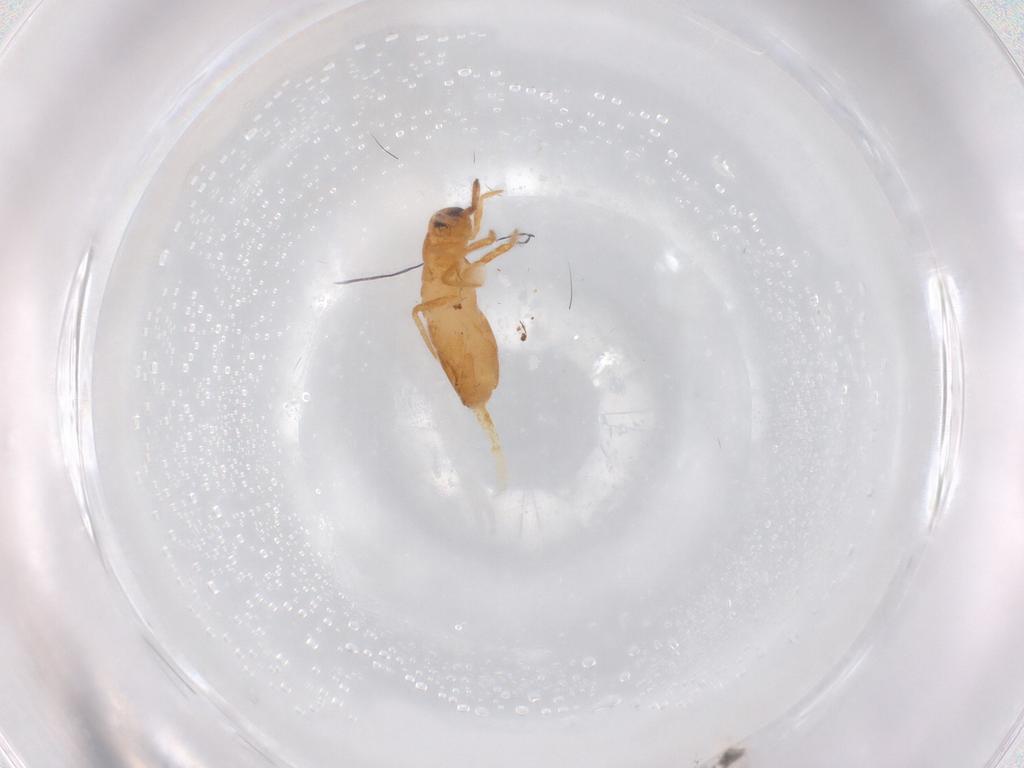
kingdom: Animalia
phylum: Arthropoda
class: Collembola
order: Entomobryomorpha
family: Entomobryidae
